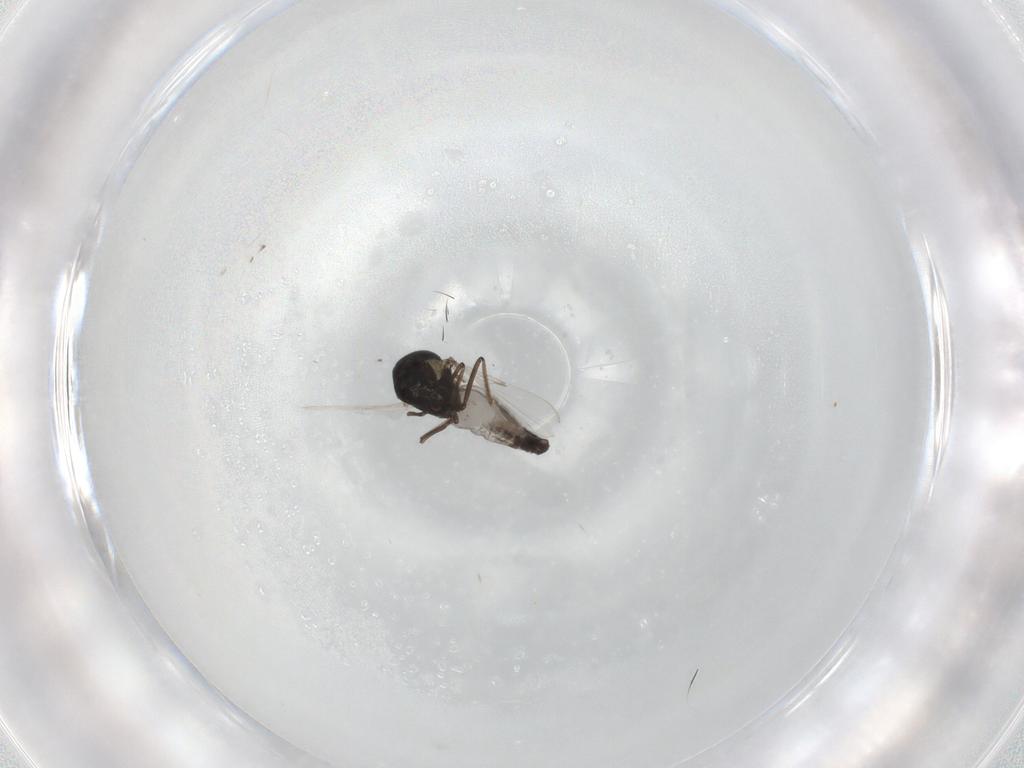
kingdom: Animalia
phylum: Arthropoda
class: Insecta
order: Diptera
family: Ceratopogonidae
